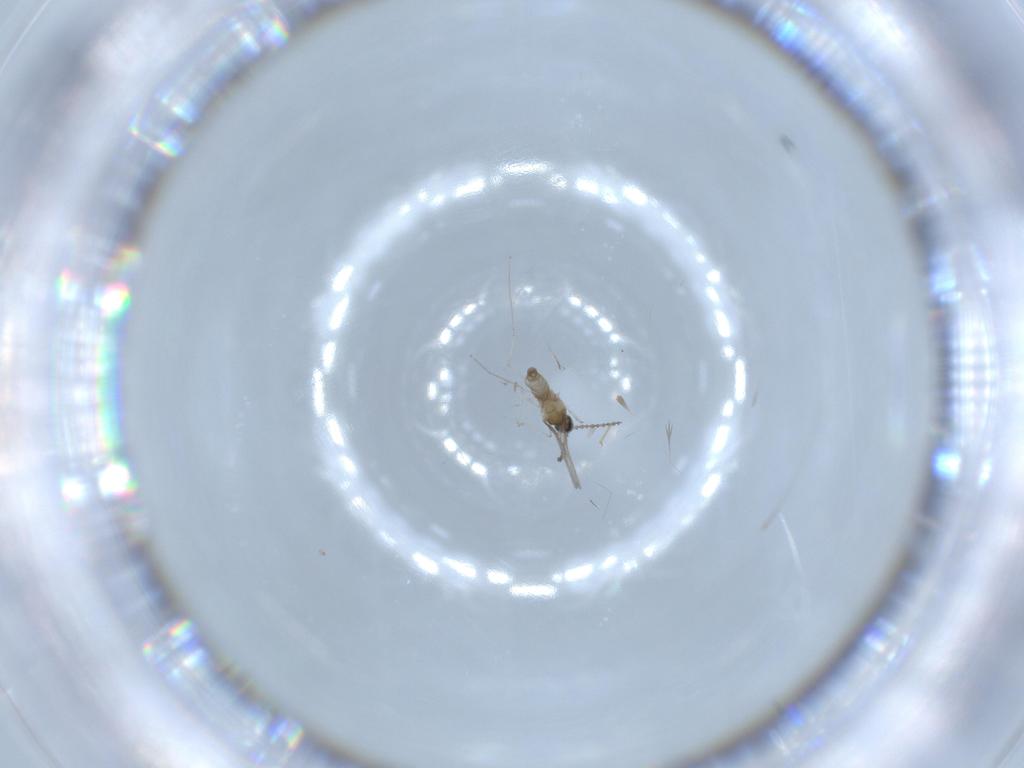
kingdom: Animalia
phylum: Arthropoda
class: Insecta
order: Diptera
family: Cecidomyiidae
